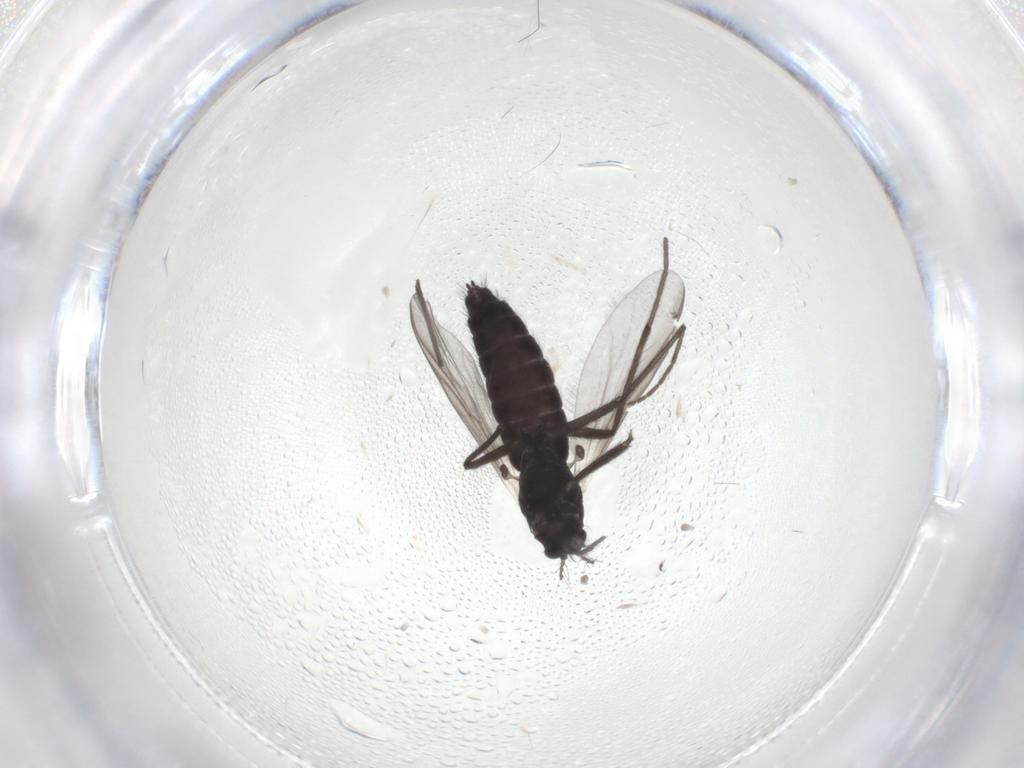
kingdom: Animalia
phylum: Arthropoda
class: Insecta
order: Diptera
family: Chironomidae
